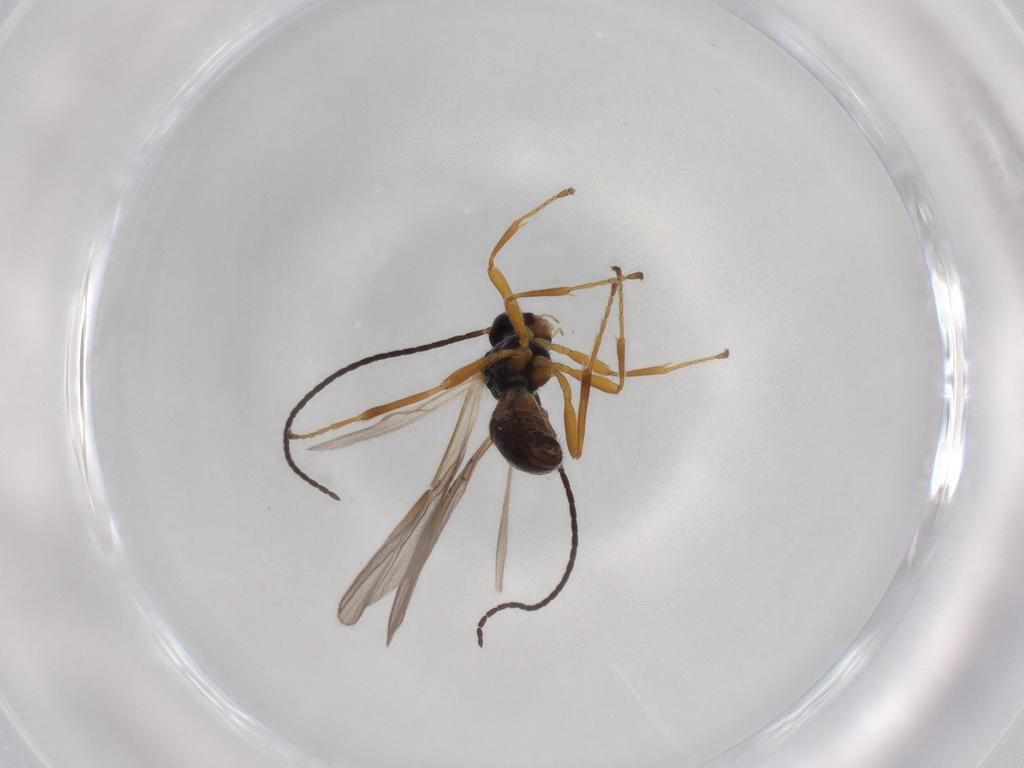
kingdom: Animalia
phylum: Arthropoda
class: Insecta
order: Hymenoptera
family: Braconidae
